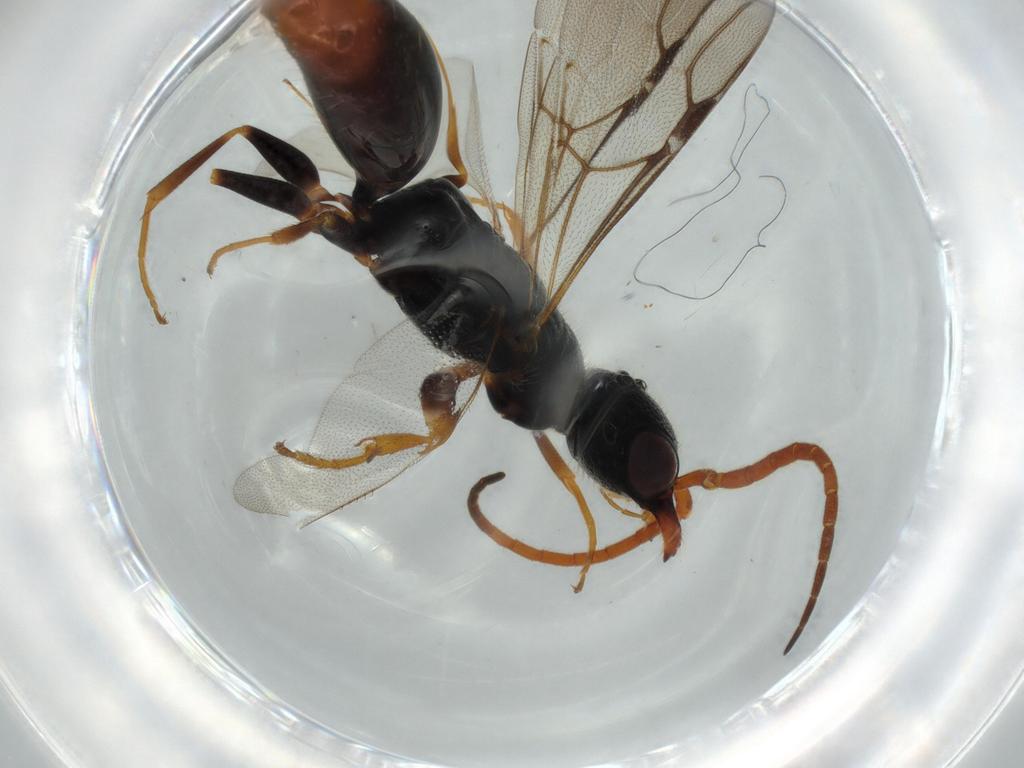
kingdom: Animalia
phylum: Arthropoda
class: Insecta
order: Hymenoptera
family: Bethylidae
